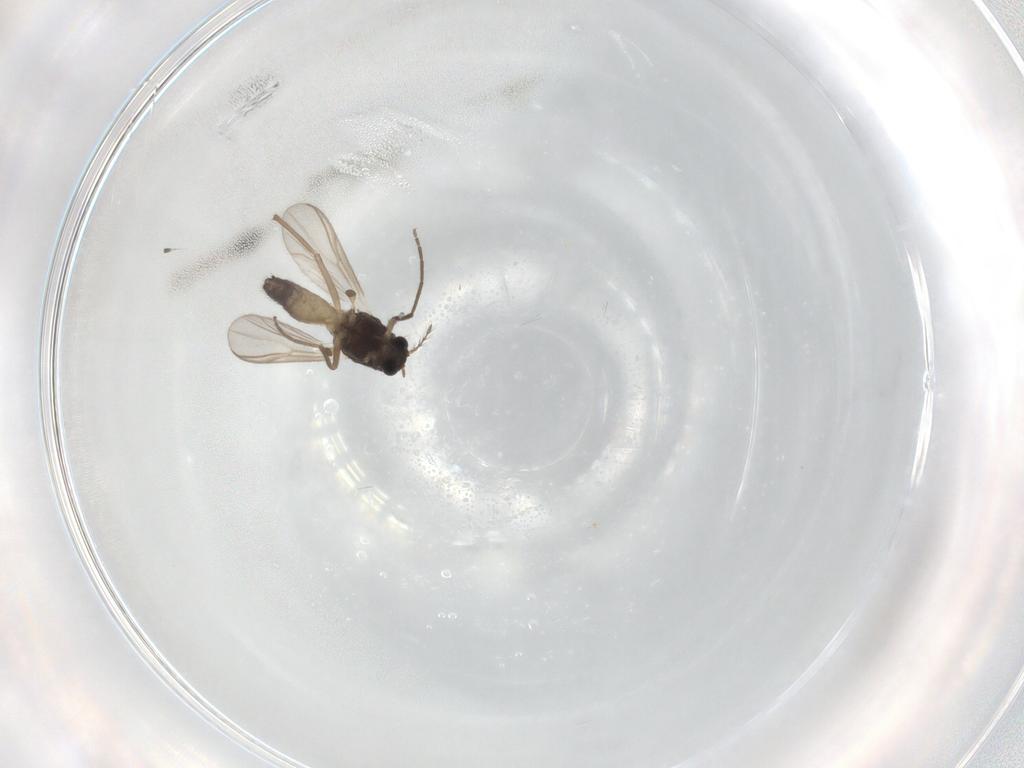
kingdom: Animalia
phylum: Arthropoda
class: Insecta
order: Diptera
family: Chironomidae
